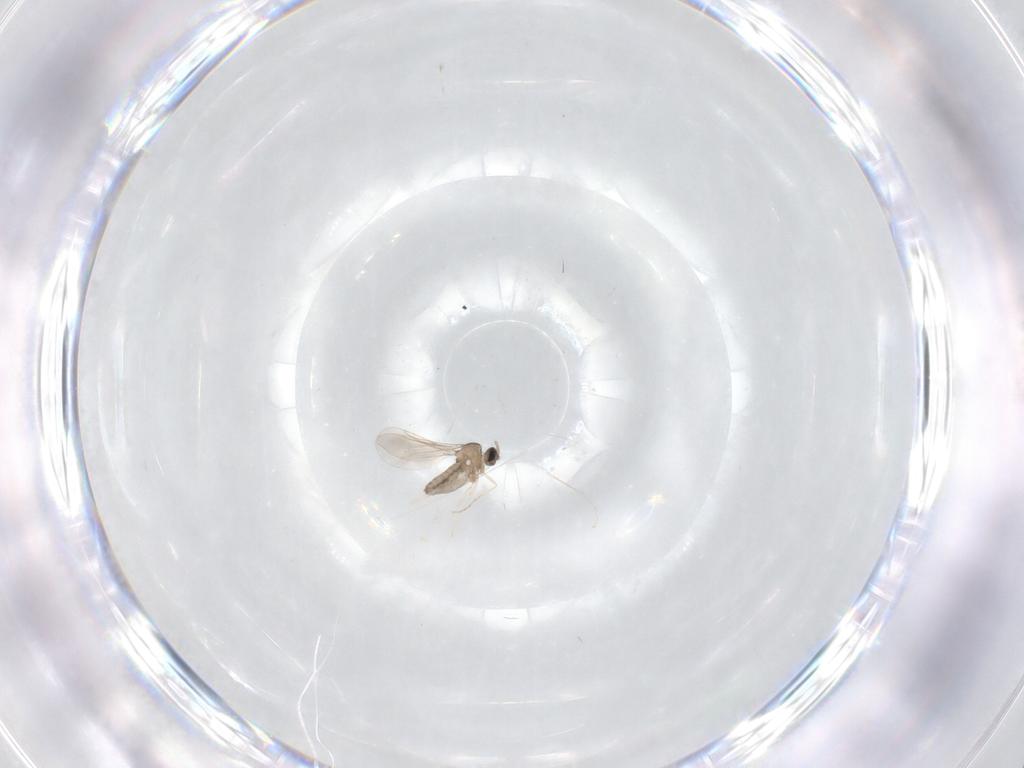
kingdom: Animalia
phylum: Arthropoda
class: Insecta
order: Diptera
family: Cecidomyiidae
